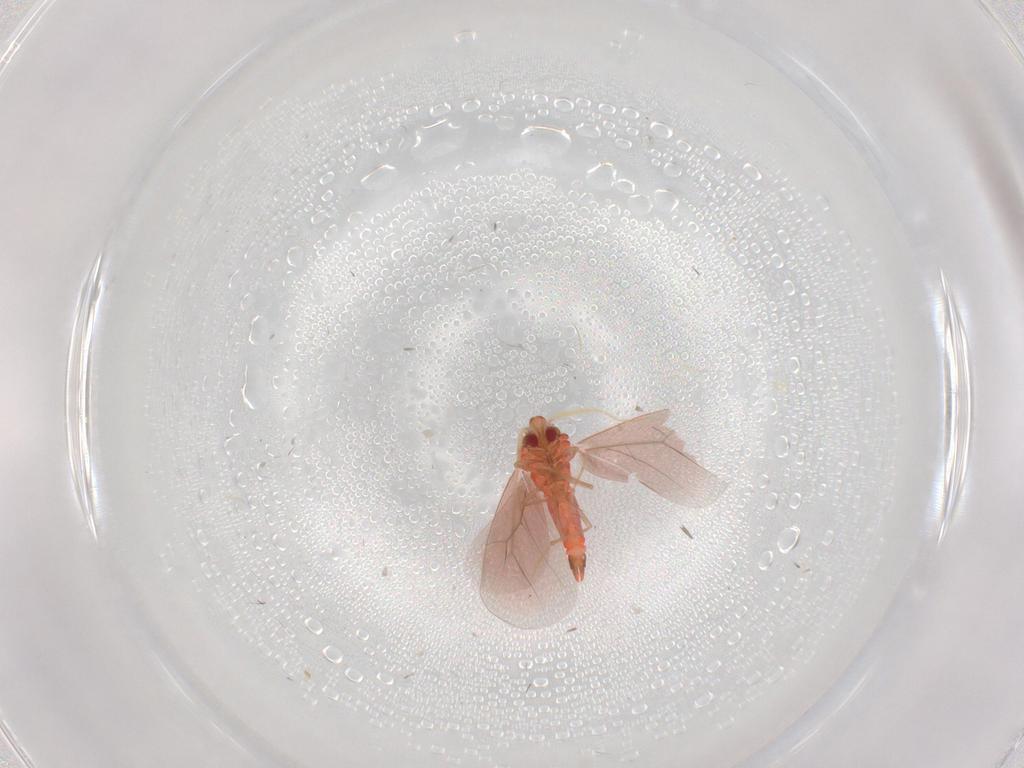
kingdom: Animalia
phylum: Arthropoda
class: Insecta
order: Hemiptera
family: Aleyrodidae
